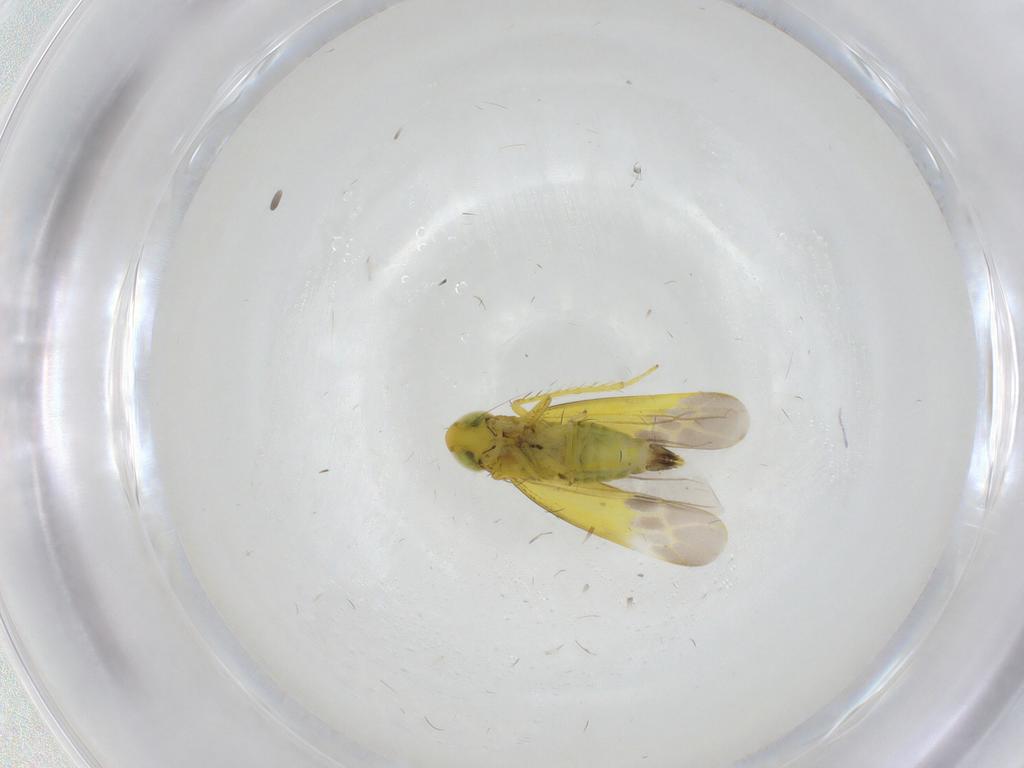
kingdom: Animalia
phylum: Arthropoda
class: Insecta
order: Hemiptera
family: Cicadellidae
